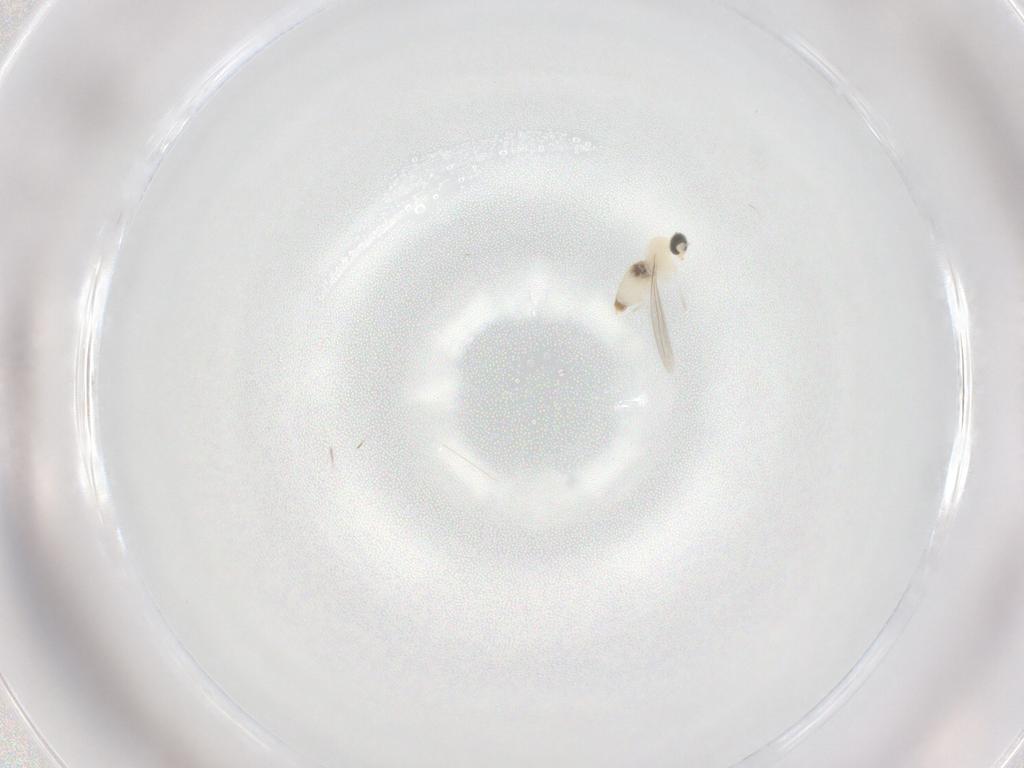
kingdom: Animalia
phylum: Arthropoda
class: Insecta
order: Diptera
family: Cecidomyiidae
